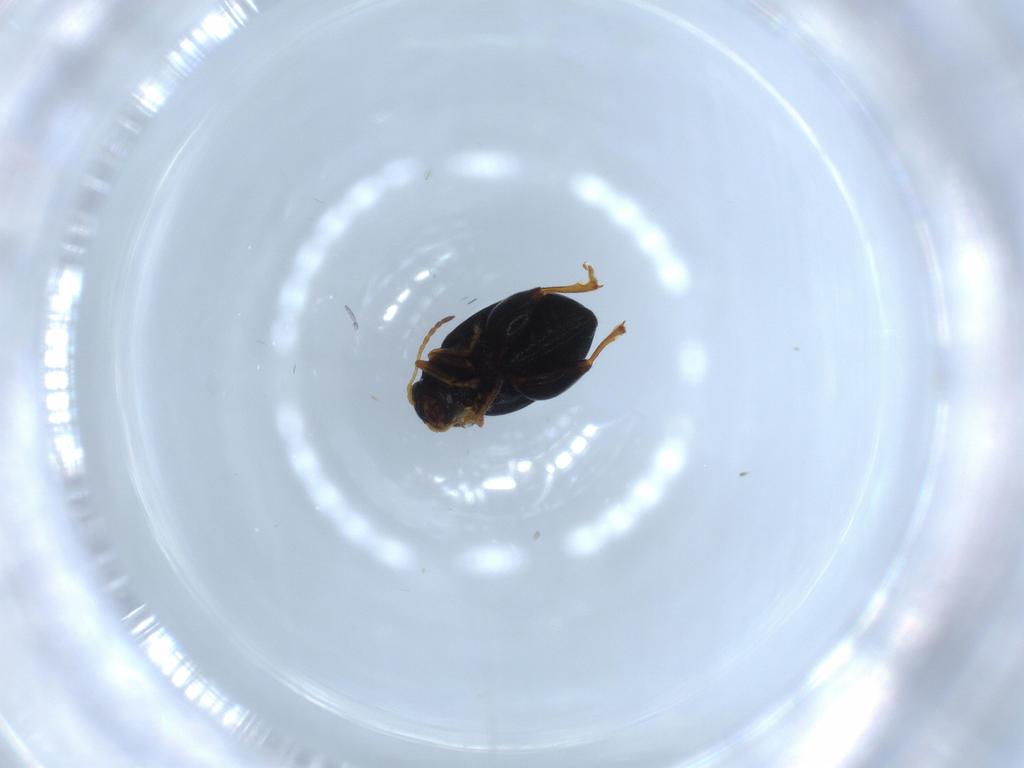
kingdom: Animalia
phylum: Arthropoda
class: Insecta
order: Coleoptera
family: Chrysomelidae
